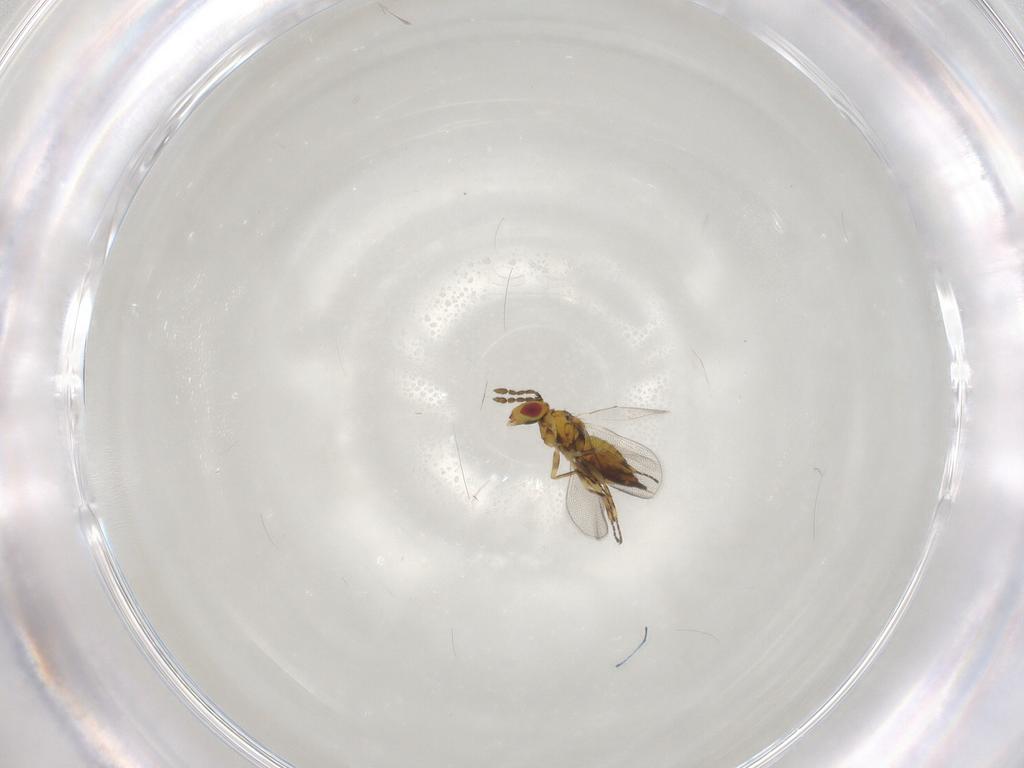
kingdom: Animalia
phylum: Arthropoda
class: Insecta
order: Hymenoptera
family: Eulophidae
